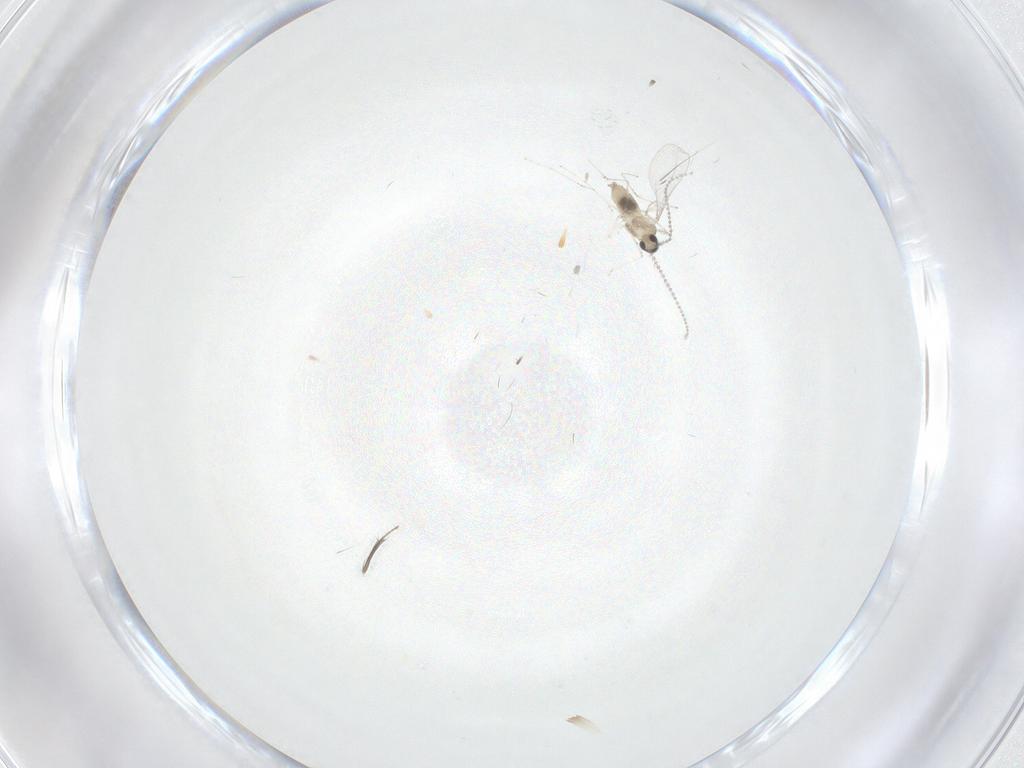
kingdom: Animalia
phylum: Arthropoda
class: Insecta
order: Diptera
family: Cecidomyiidae
